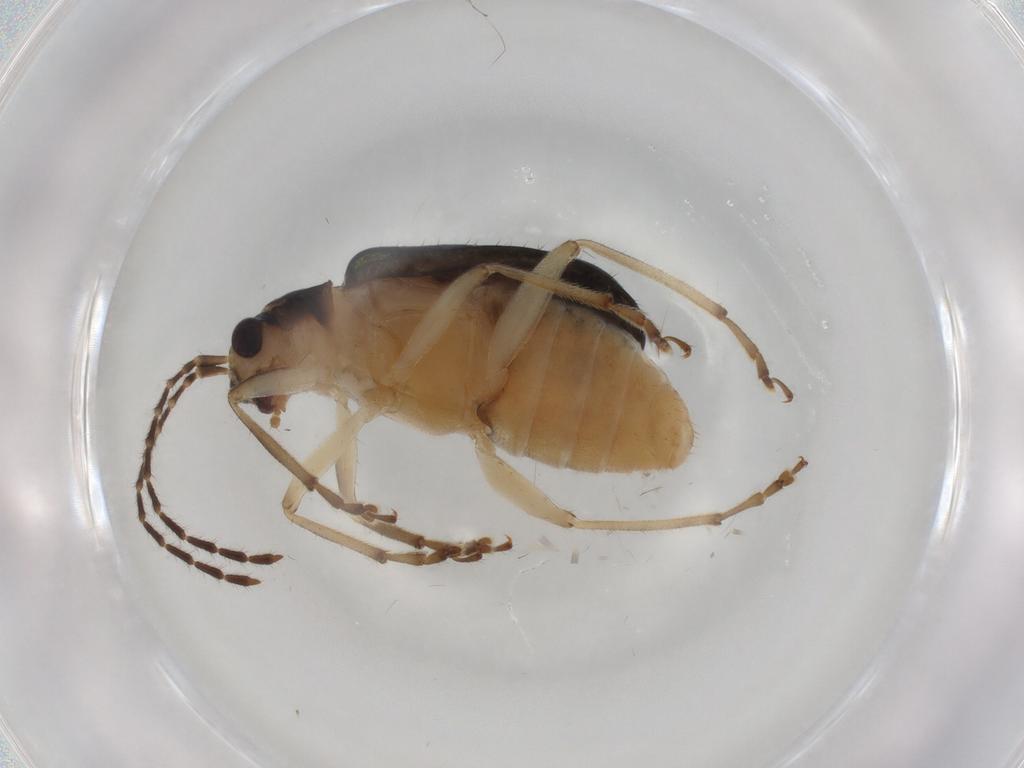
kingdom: Animalia
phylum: Arthropoda
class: Insecta
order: Coleoptera
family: Chrysomelidae
